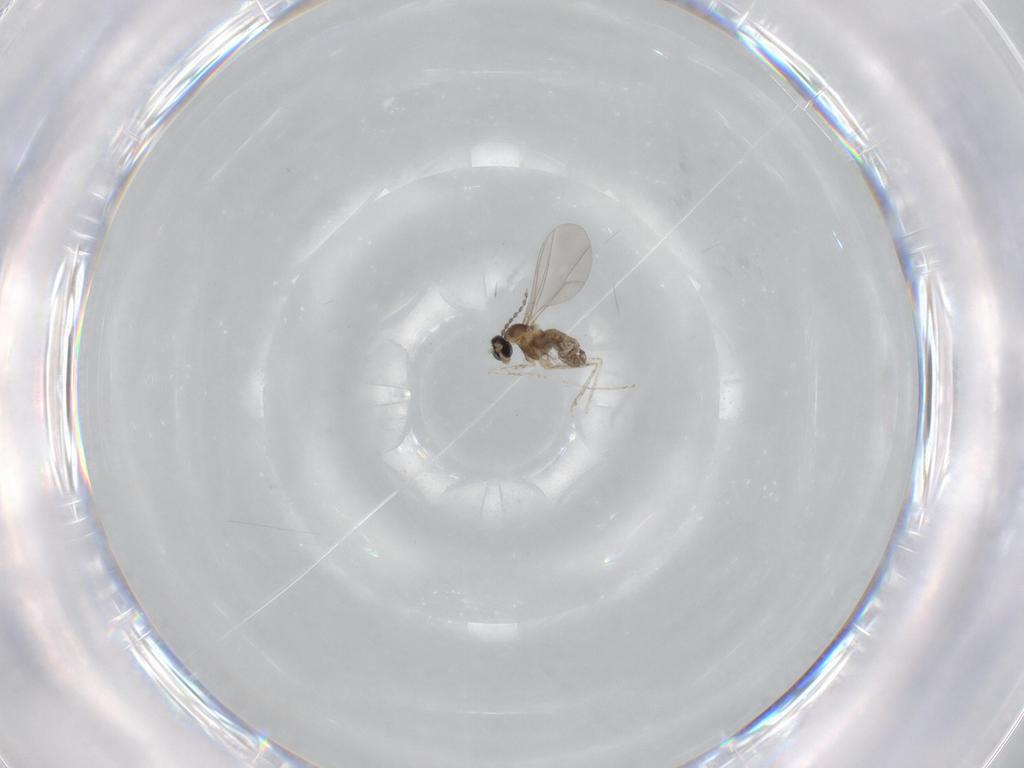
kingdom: Animalia
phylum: Arthropoda
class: Insecta
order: Diptera
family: Cecidomyiidae
